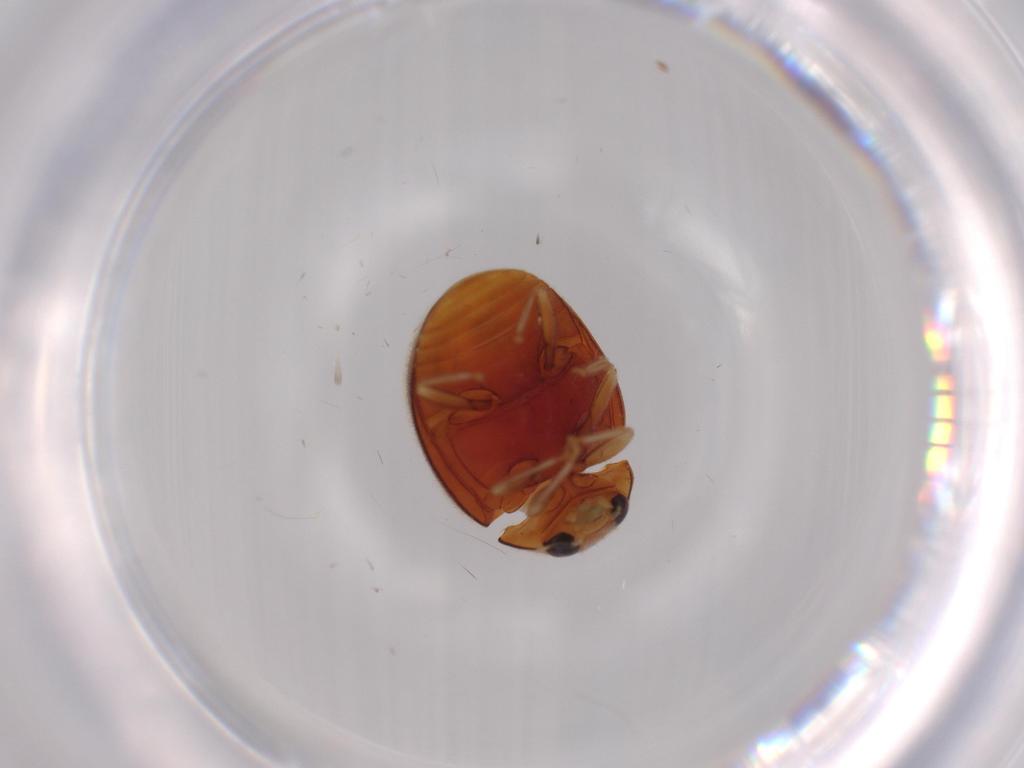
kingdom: Animalia
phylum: Arthropoda
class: Insecta
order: Coleoptera
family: Coccinellidae
